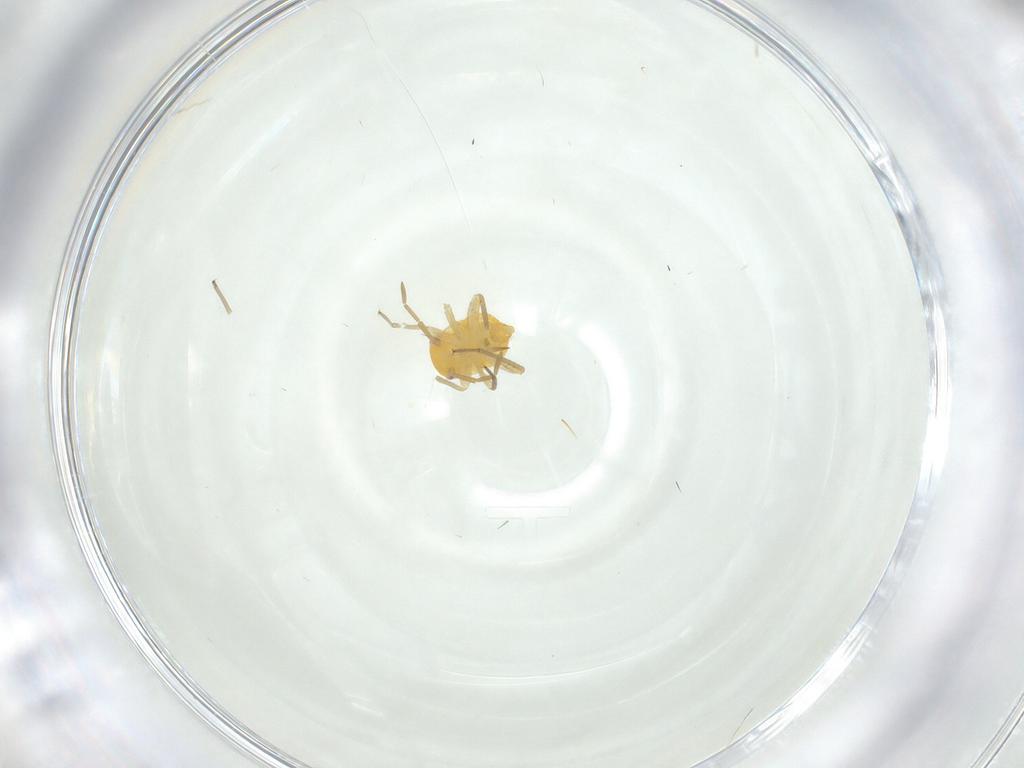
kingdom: Animalia
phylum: Arthropoda
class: Insecta
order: Hemiptera
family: Miridae
